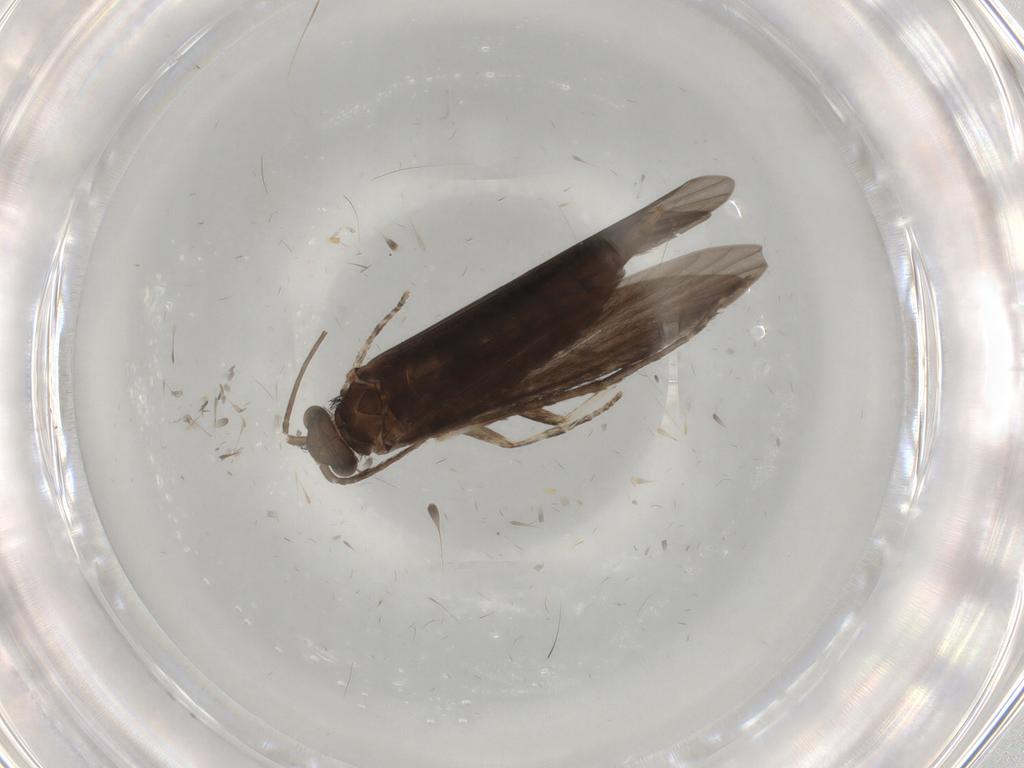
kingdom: Animalia
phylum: Arthropoda
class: Insecta
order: Trichoptera
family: Xiphocentronidae
